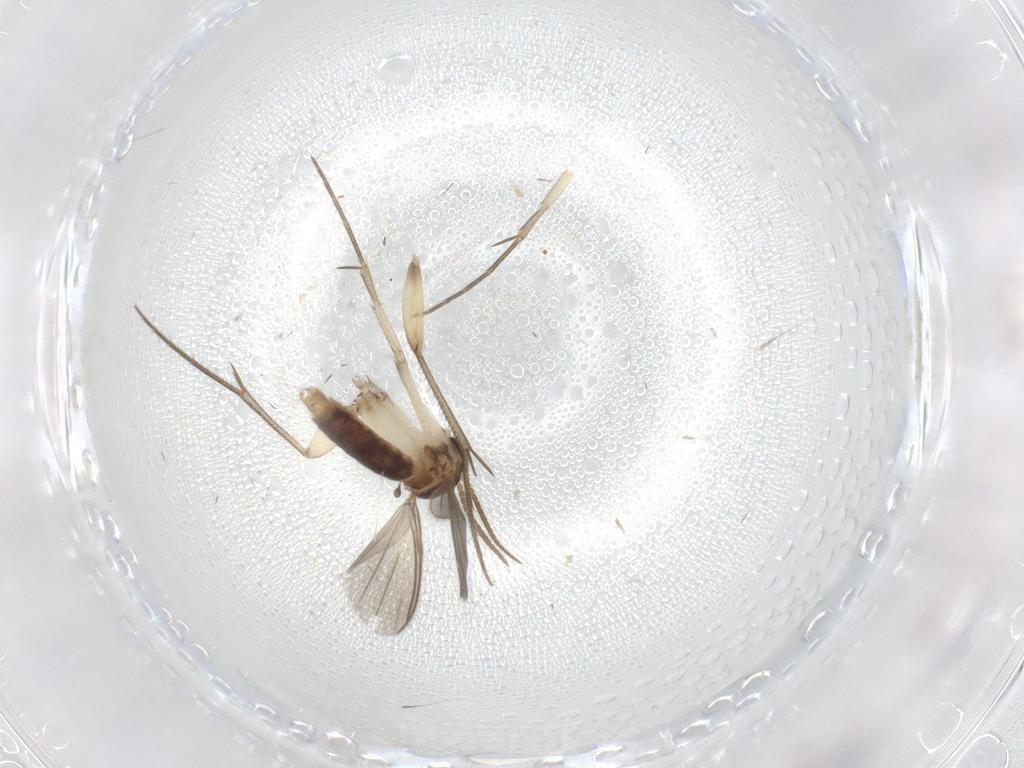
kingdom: Animalia
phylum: Arthropoda
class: Insecta
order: Diptera
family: Mycetophilidae
